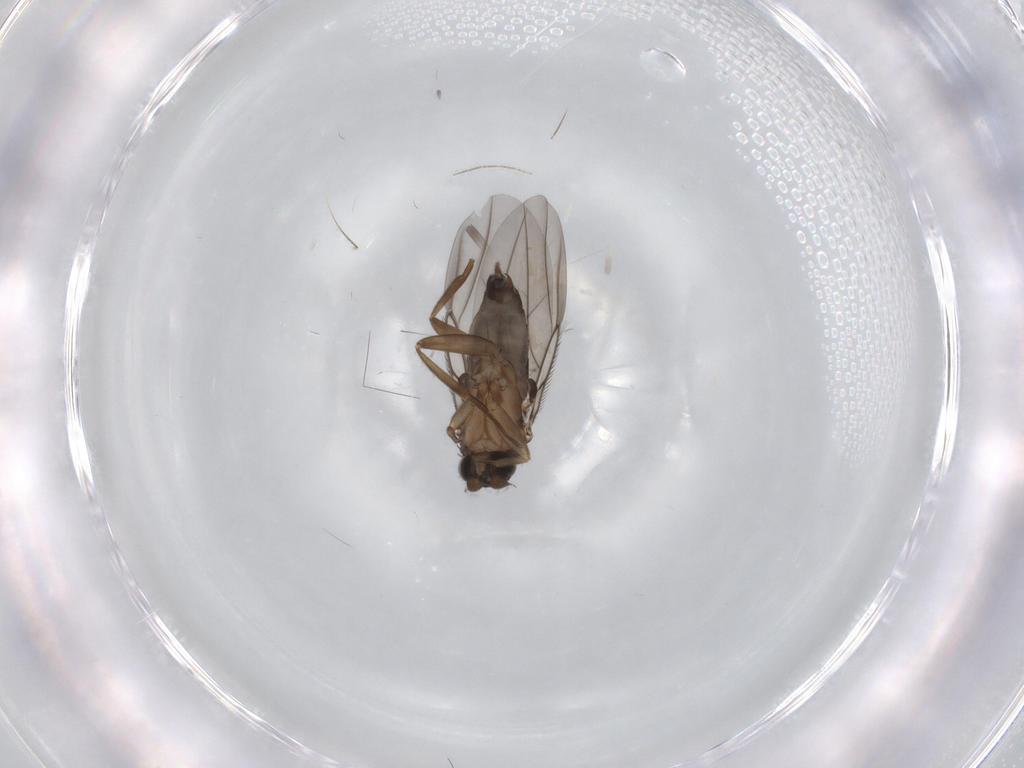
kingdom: Animalia
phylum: Arthropoda
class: Insecta
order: Diptera
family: Phoridae
